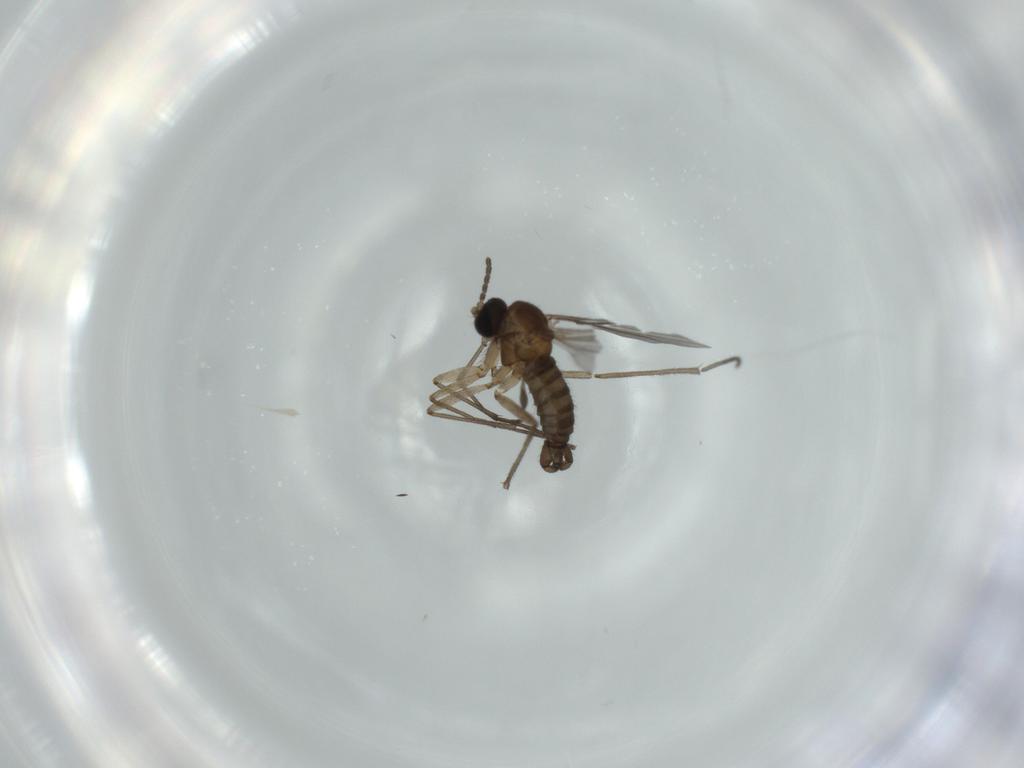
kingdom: Animalia
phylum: Arthropoda
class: Insecta
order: Diptera
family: Sciaridae
